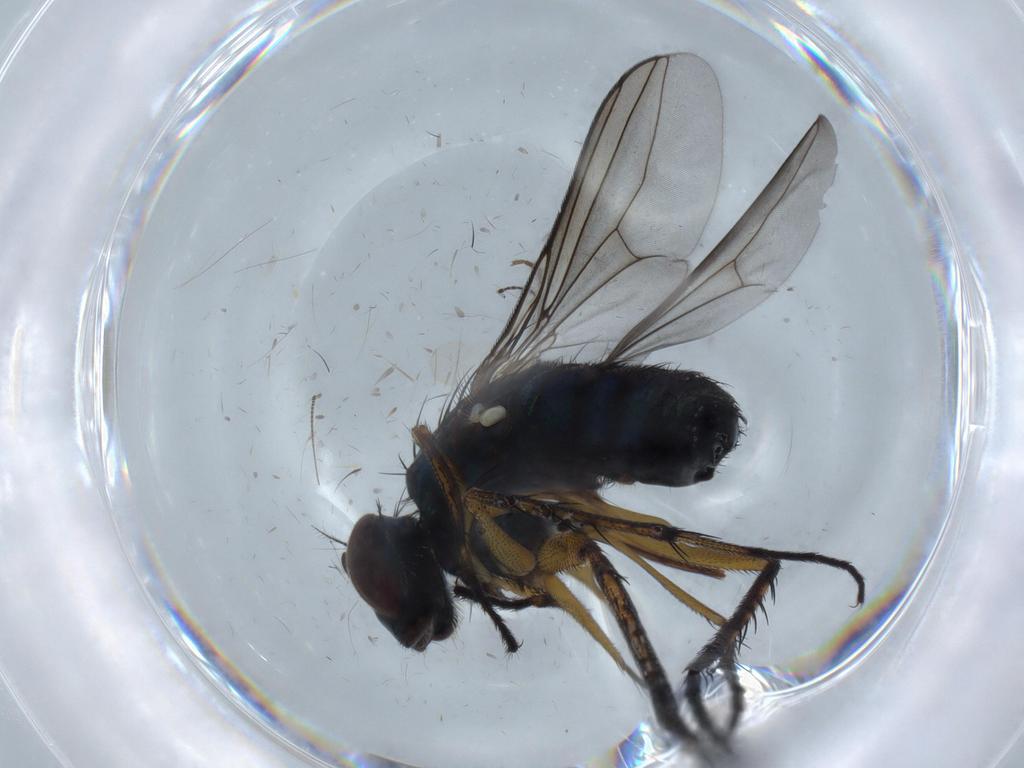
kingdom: Animalia
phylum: Arthropoda
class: Insecta
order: Diptera
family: Dolichopodidae
